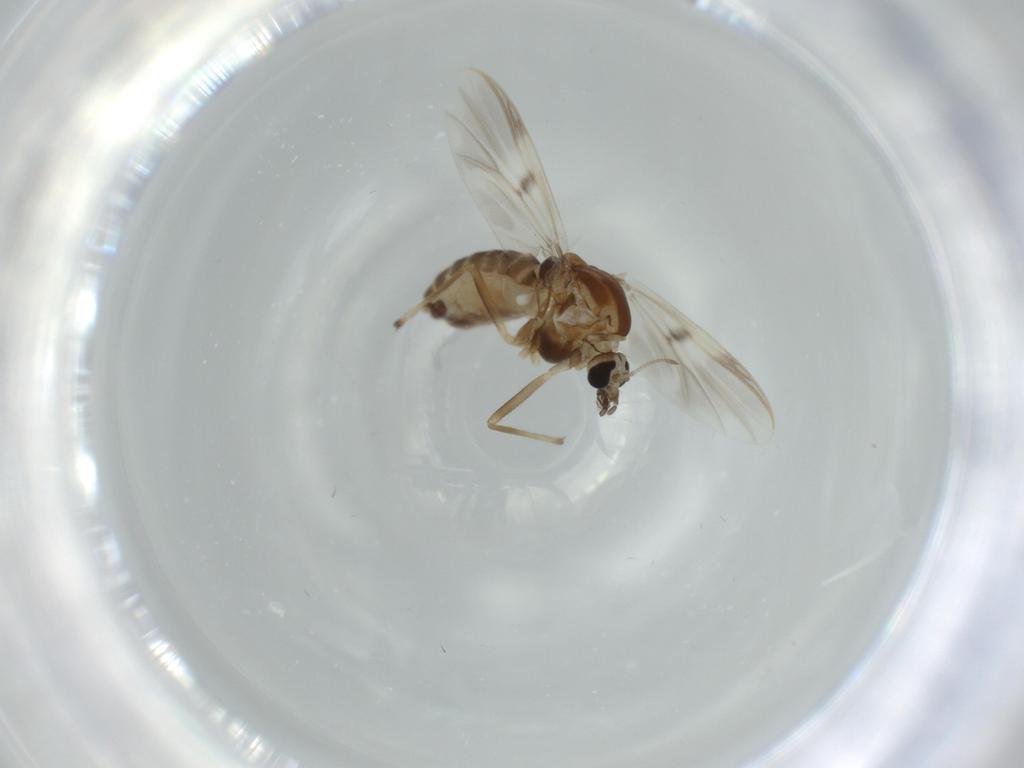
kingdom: Animalia
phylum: Arthropoda
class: Insecta
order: Diptera
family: Chironomidae
